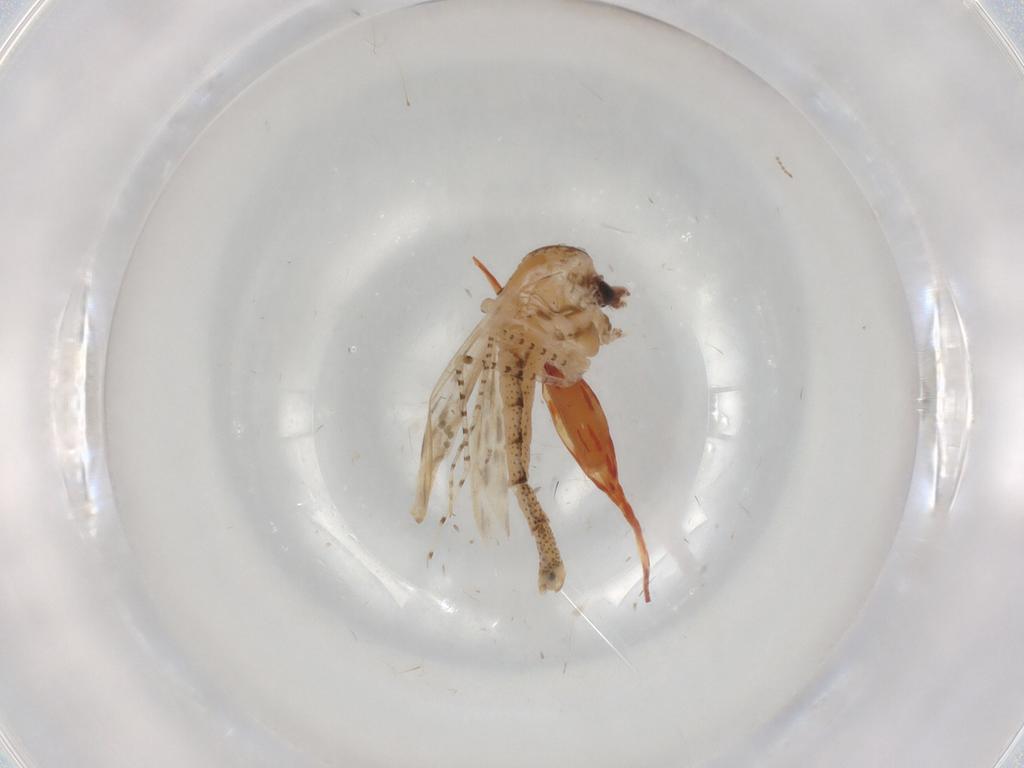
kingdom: Animalia
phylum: Arthropoda
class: Insecta
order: Diptera
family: Chaoboridae
